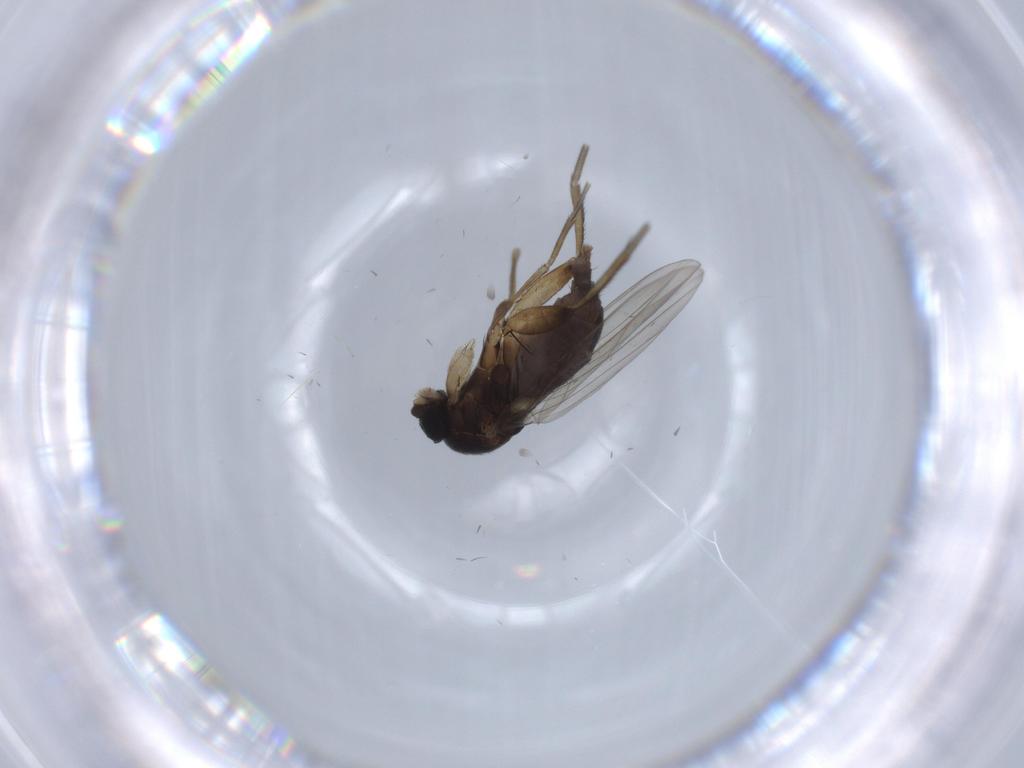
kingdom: Animalia
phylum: Arthropoda
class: Insecta
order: Diptera
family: Phoridae
